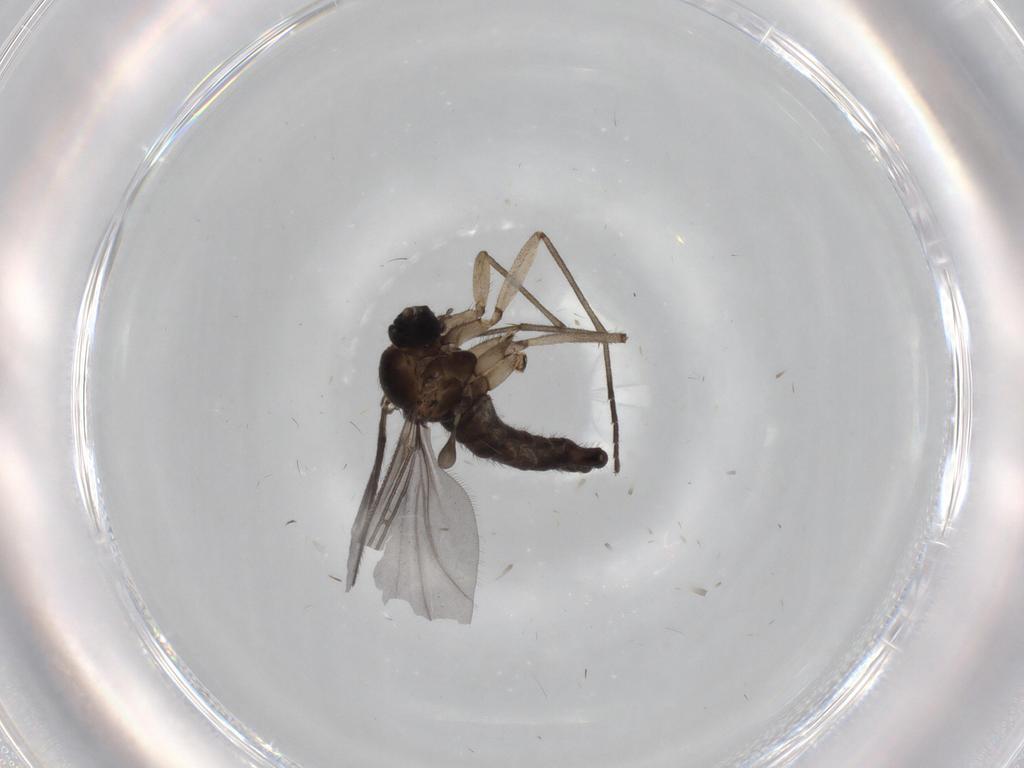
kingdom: Animalia
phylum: Arthropoda
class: Insecta
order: Diptera
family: Sciaridae
